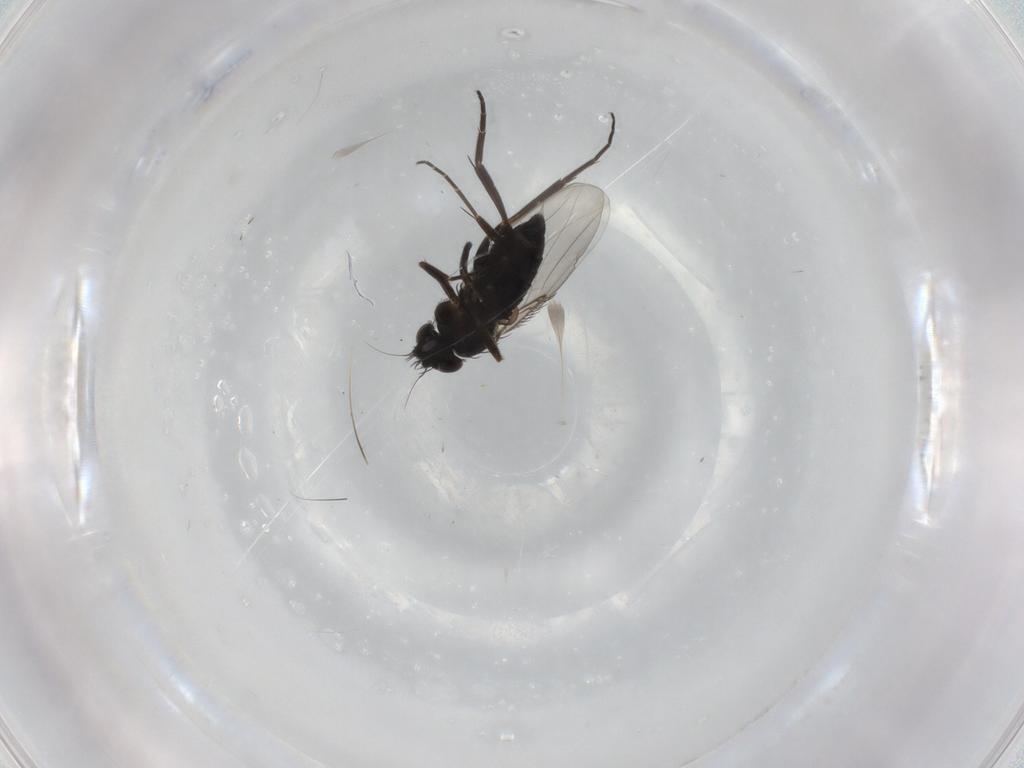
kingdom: Animalia
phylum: Arthropoda
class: Insecta
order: Diptera
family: Phoridae
